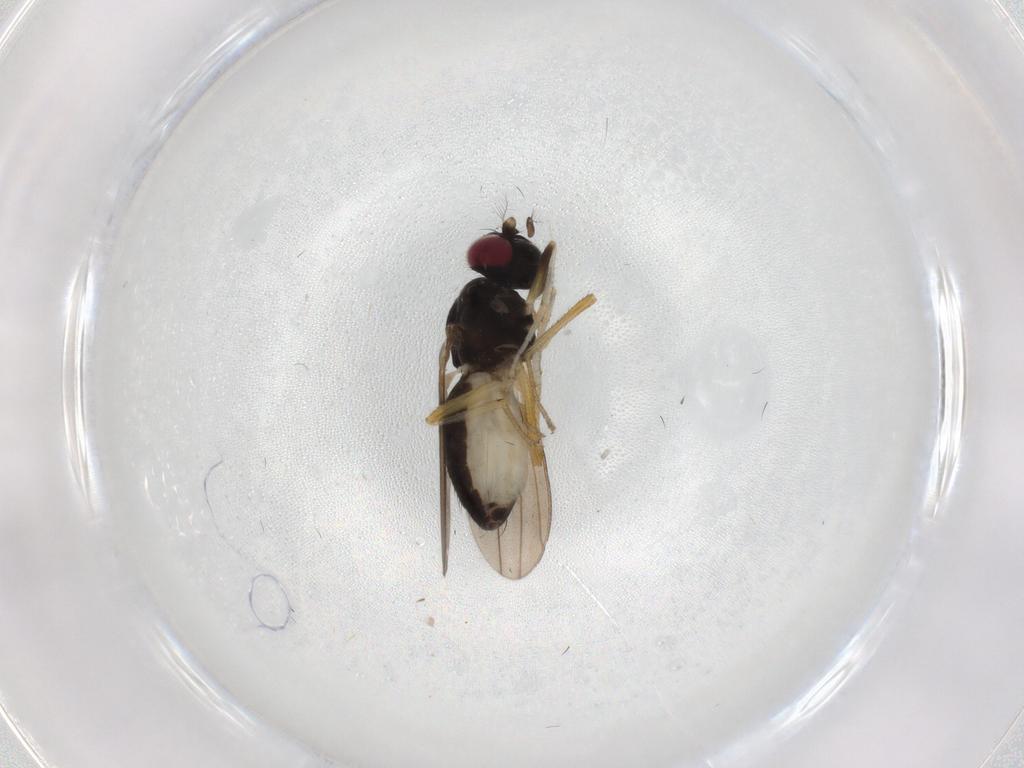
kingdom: Animalia
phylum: Arthropoda
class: Insecta
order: Diptera
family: Lauxaniidae
